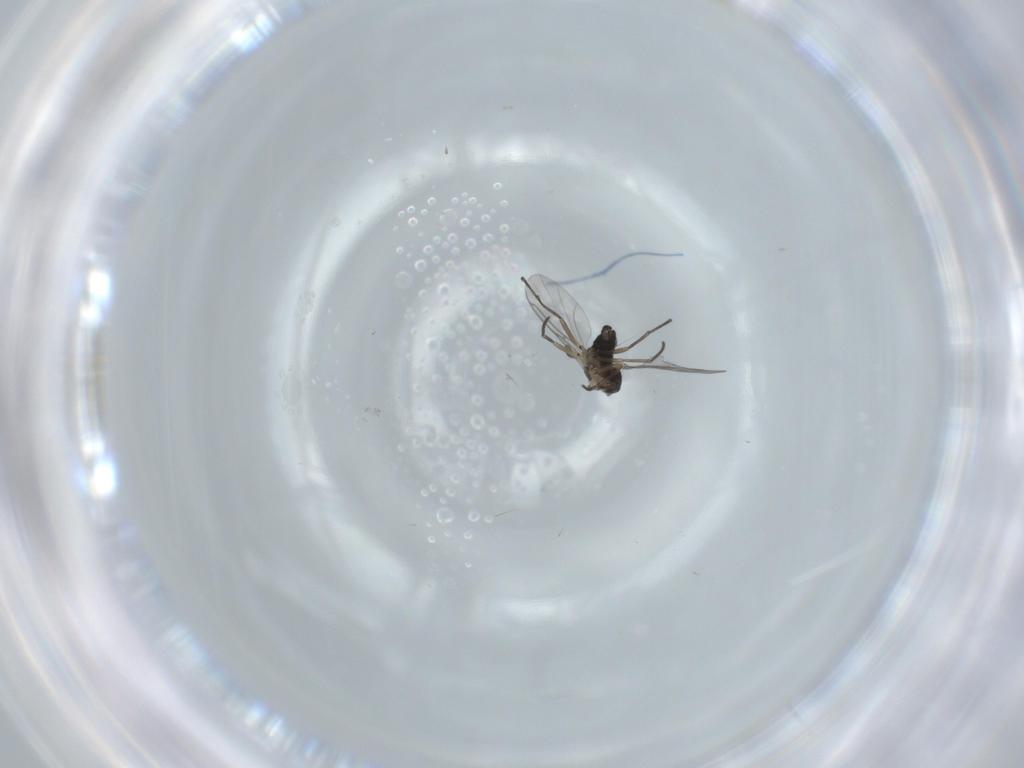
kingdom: Animalia
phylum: Arthropoda
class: Insecta
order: Diptera
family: Sciaridae
